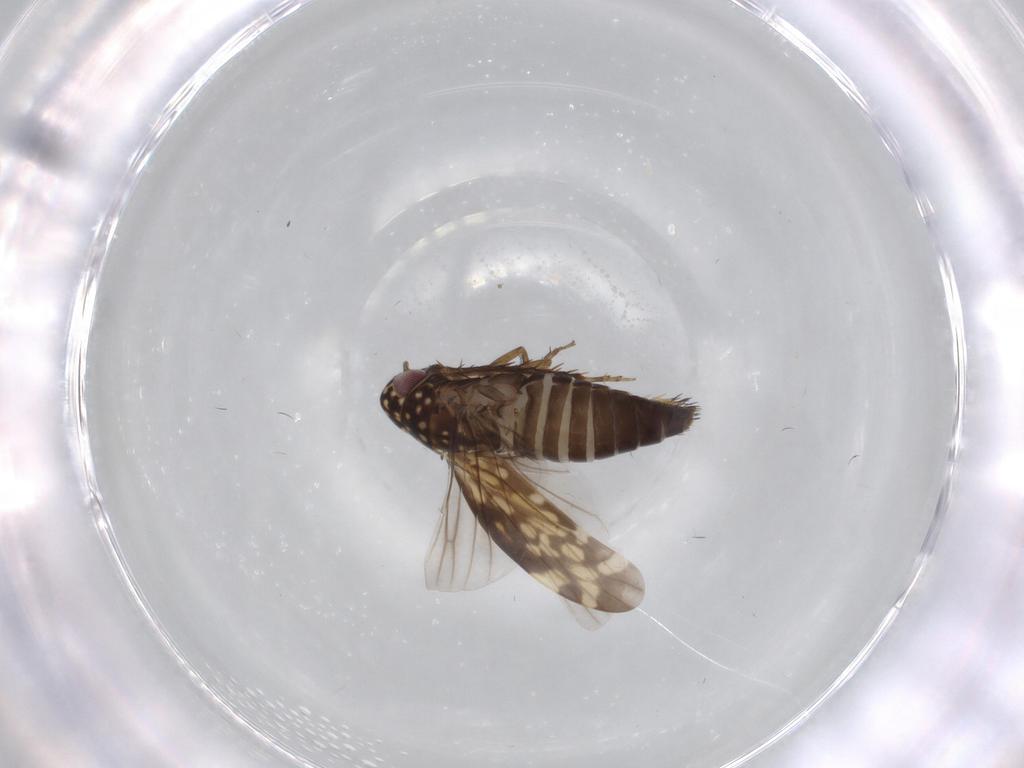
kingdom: Animalia
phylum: Arthropoda
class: Insecta
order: Hemiptera
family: Cicadellidae
